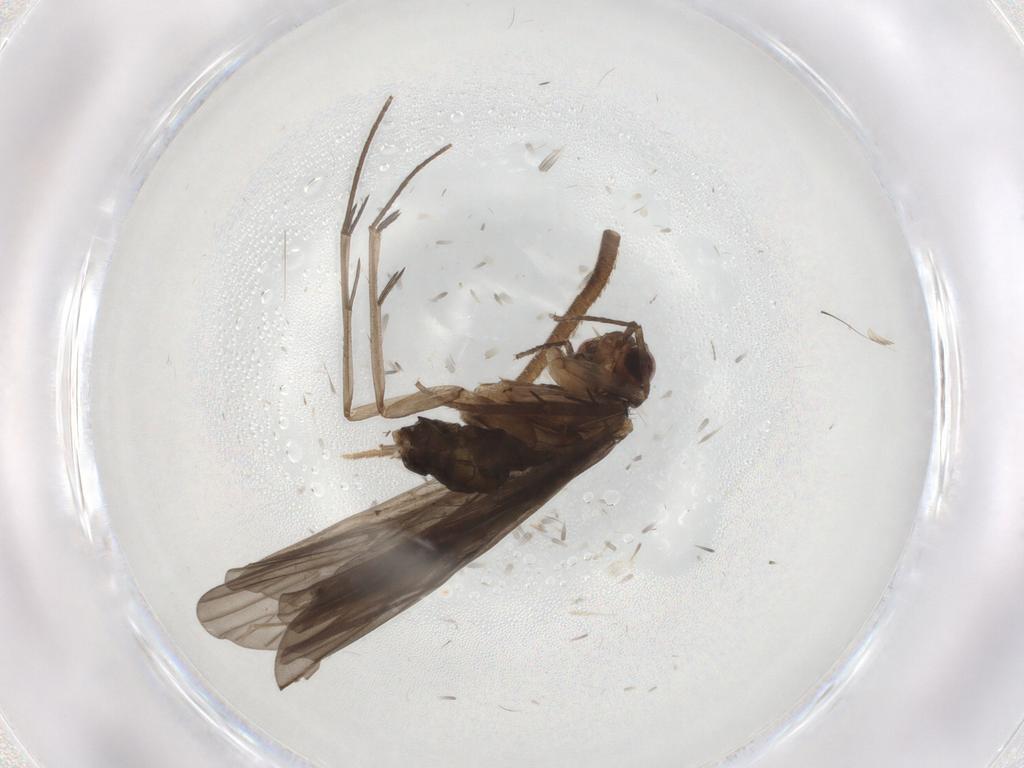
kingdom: Animalia
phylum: Arthropoda
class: Insecta
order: Diptera
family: Chironomidae
